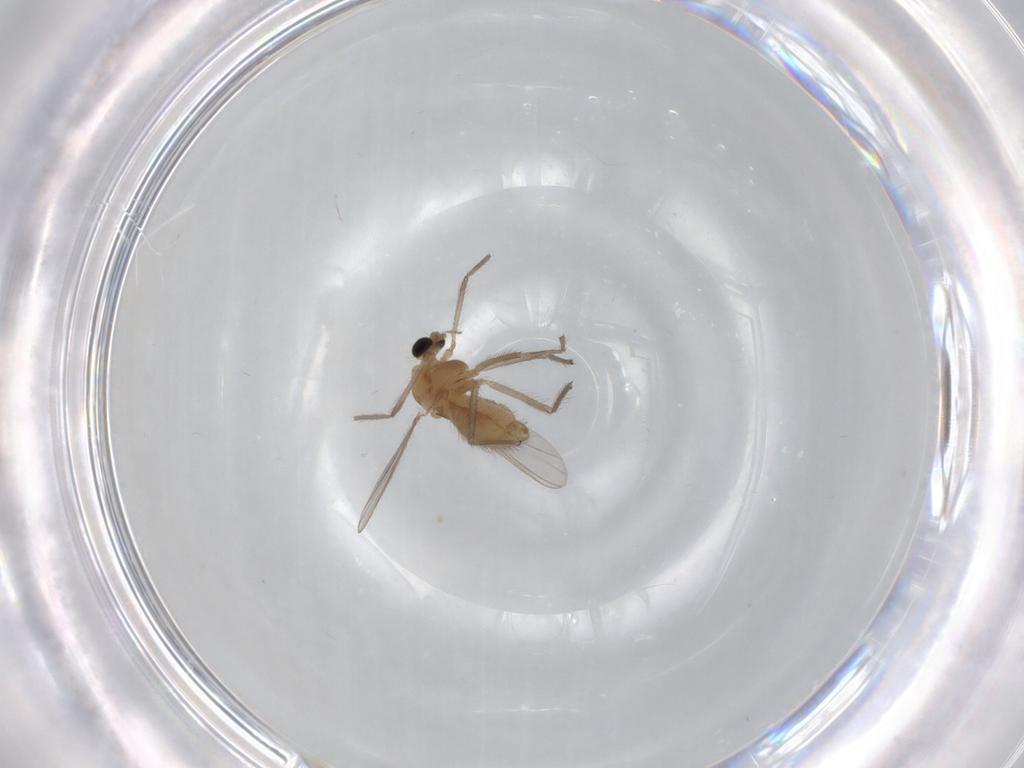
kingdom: Animalia
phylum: Arthropoda
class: Insecta
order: Diptera
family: Chironomidae
